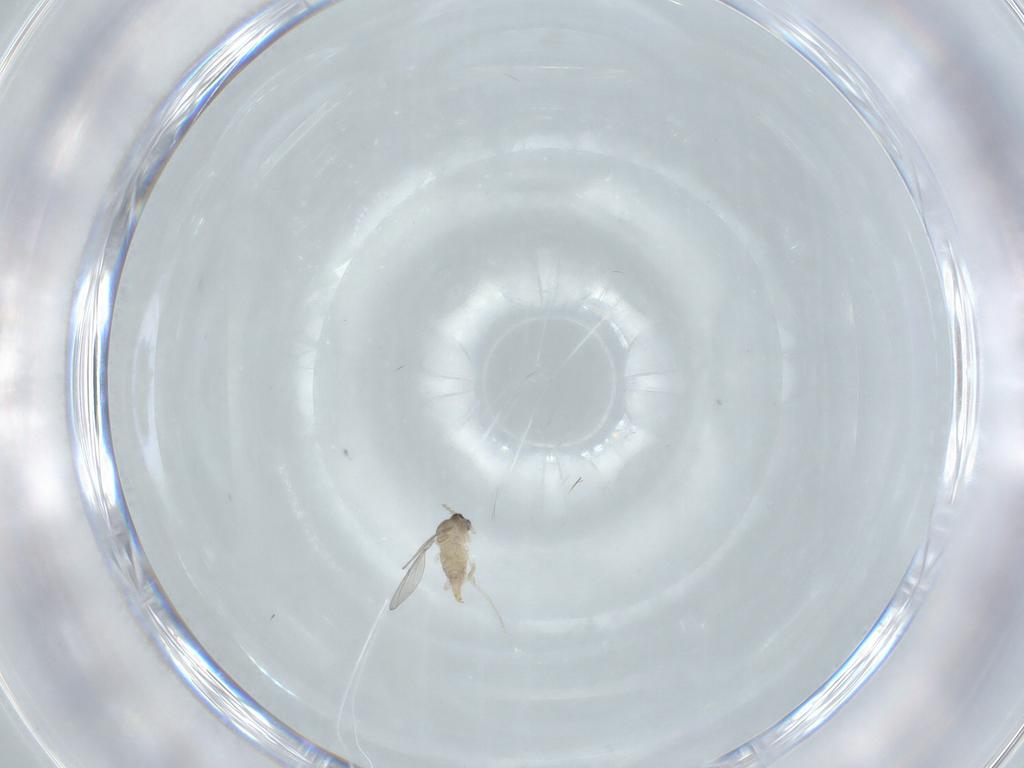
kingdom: Animalia
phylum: Arthropoda
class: Insecta
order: Diptera
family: Cecidomyiidae
